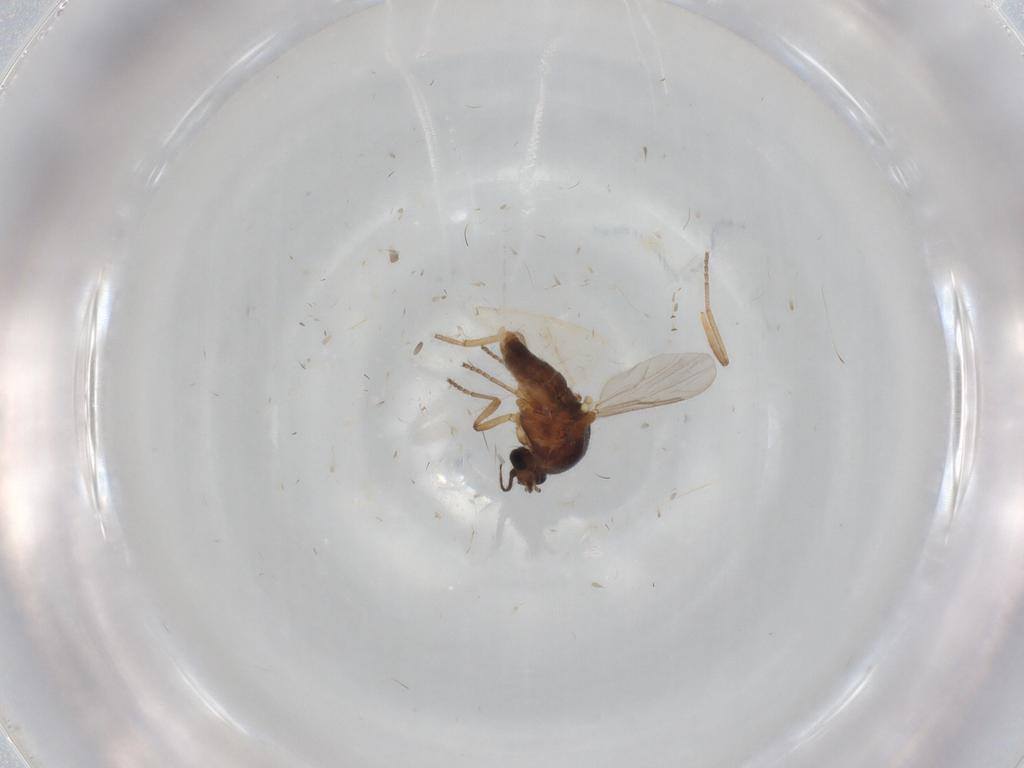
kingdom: Animalia
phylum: Arthropoda
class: Insecta
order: Diptera
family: Ceratopogonidae
